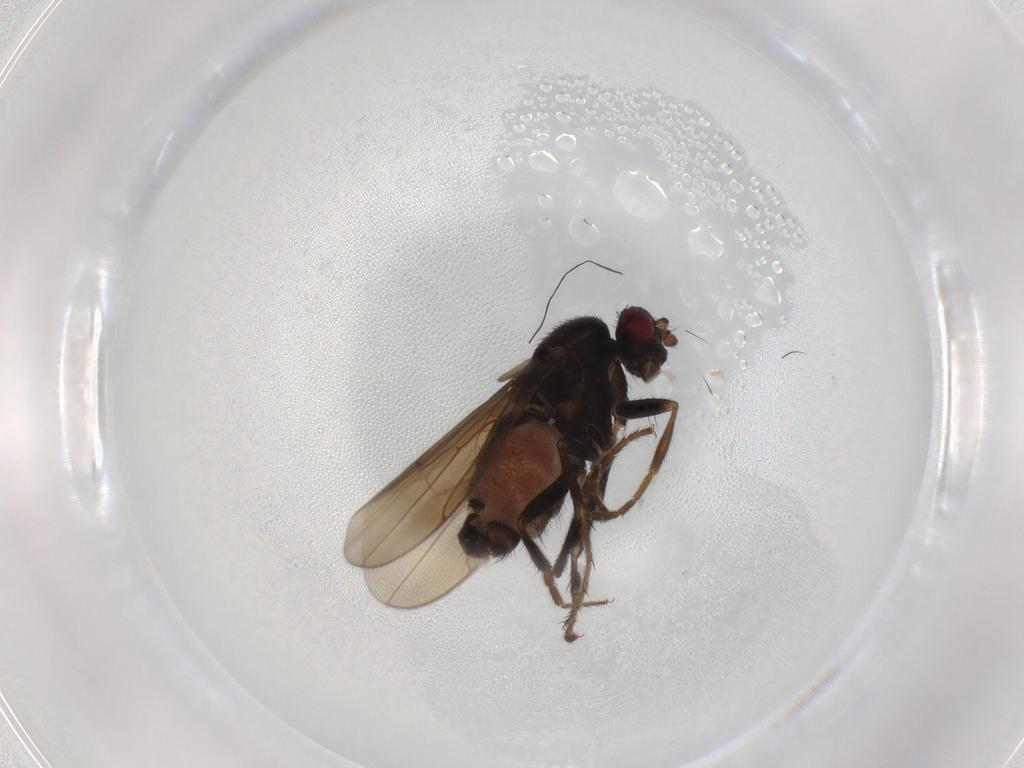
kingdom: Animalia
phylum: Arthropoda
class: Insecta
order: Diptera
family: Sphaeroceridae
